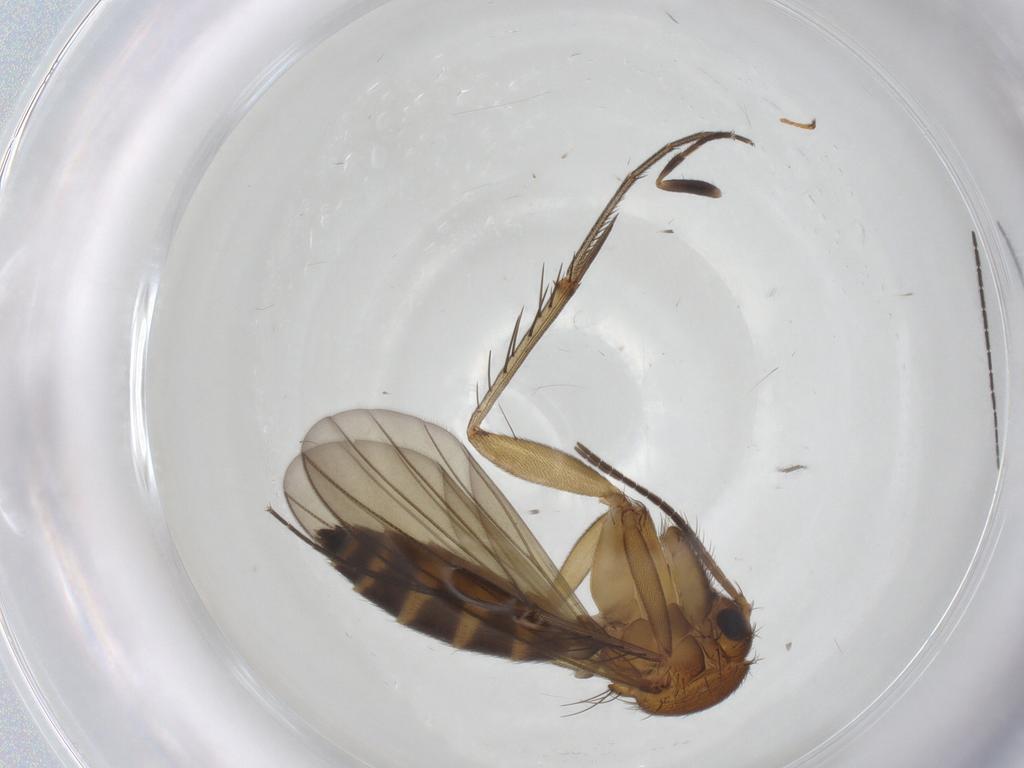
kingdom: Animalia
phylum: Arthropoda
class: Insecta
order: Diptera
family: Sphaeroceridae
